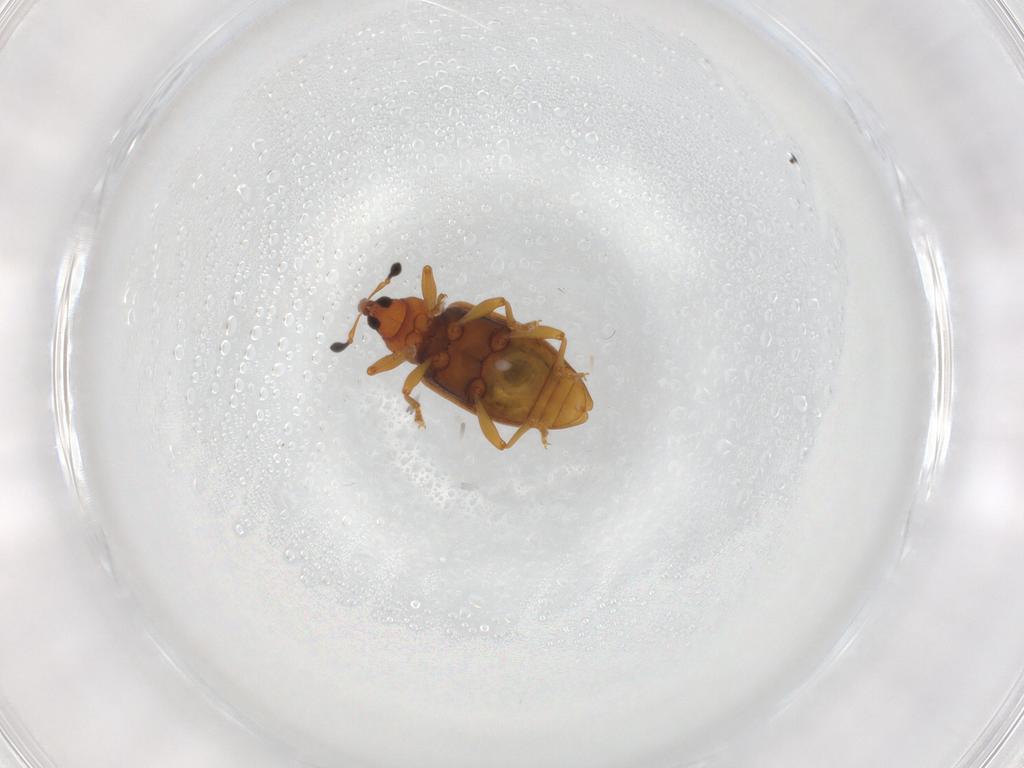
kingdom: Animalia
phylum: Arthropoda
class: Insecta
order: Coleoptera
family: Curculionidae
